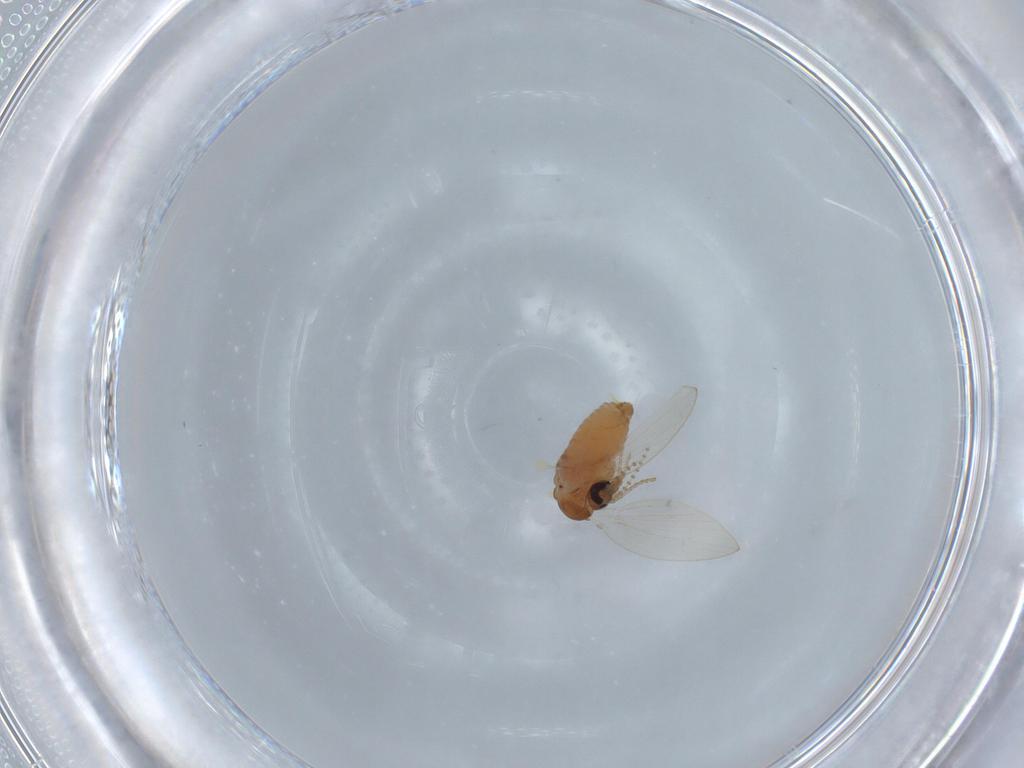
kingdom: Animalia
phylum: Arthropoda
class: Insecta
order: Diptera
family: Psychodidae
